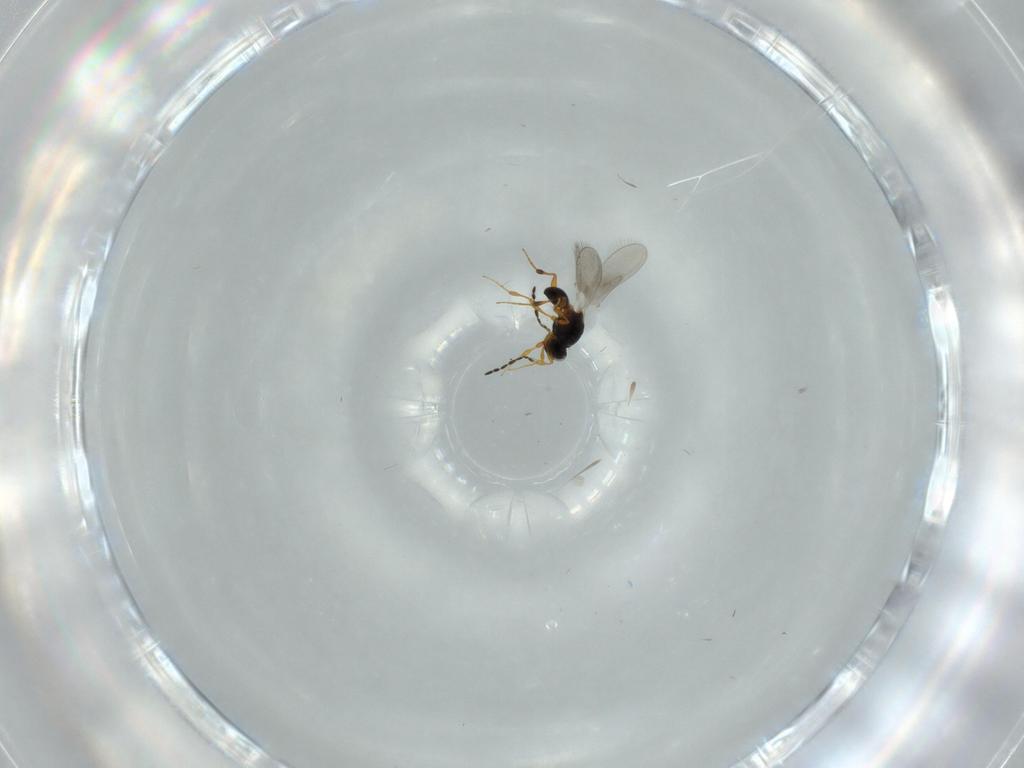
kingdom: Animalia
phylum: Arthropoda
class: Insecta
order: Hymenoptera
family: Platygastridae
